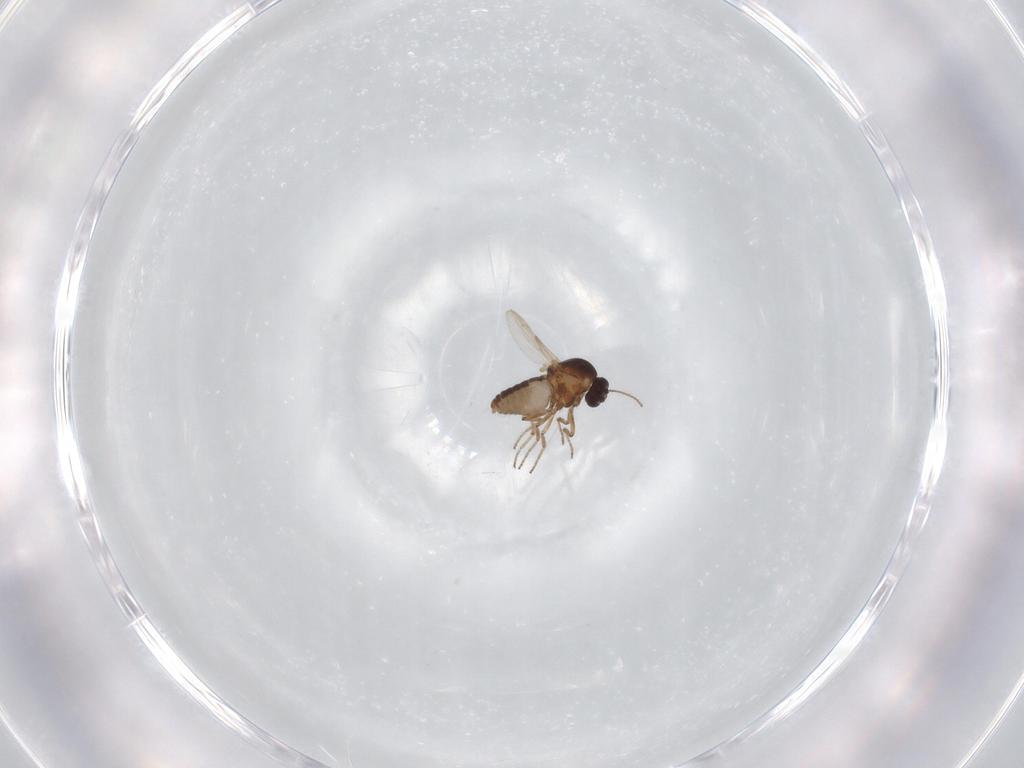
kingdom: Animalia
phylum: Arthropoda
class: Insecta
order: Diptera
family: Ceratopogonidae
